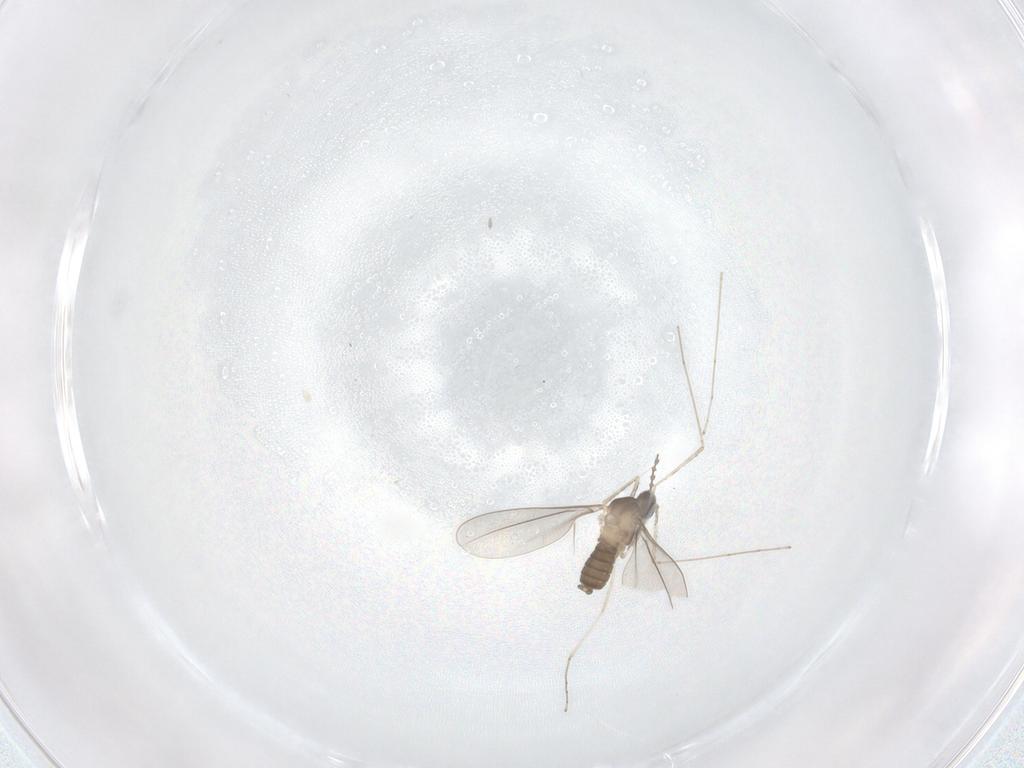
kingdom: Animalia
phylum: Arthropoda
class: Insecta
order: Diptera
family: Phoridae
